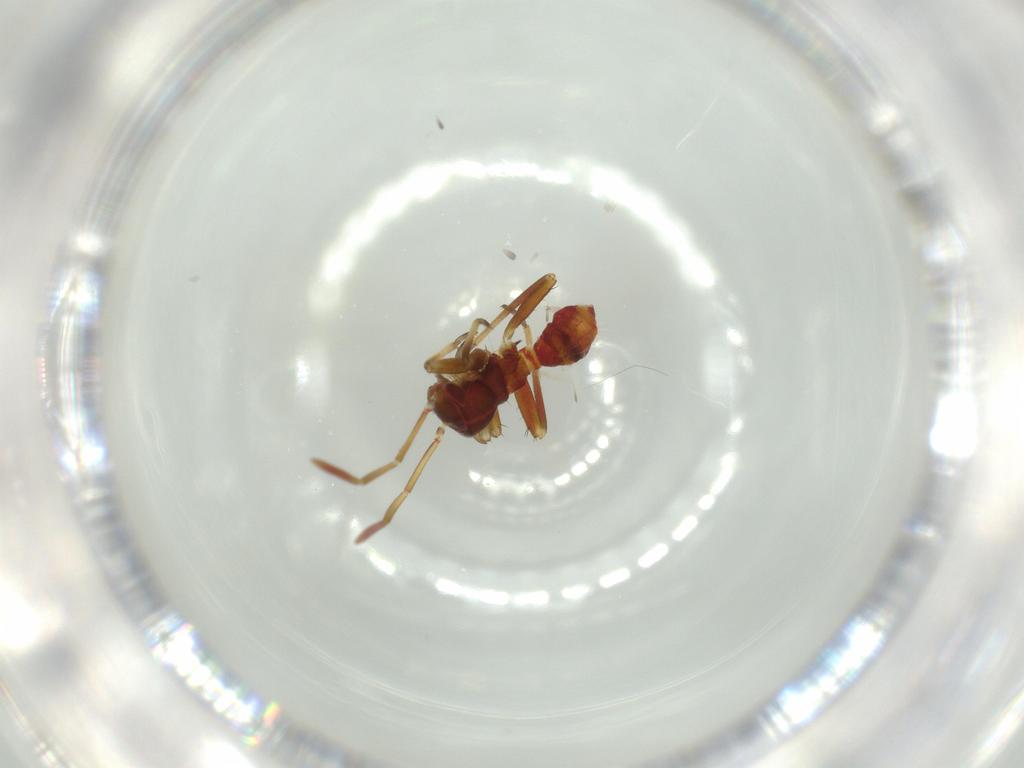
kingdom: Animalia
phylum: Arthropoda
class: Insecta
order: Hemiptera
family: Miridae
